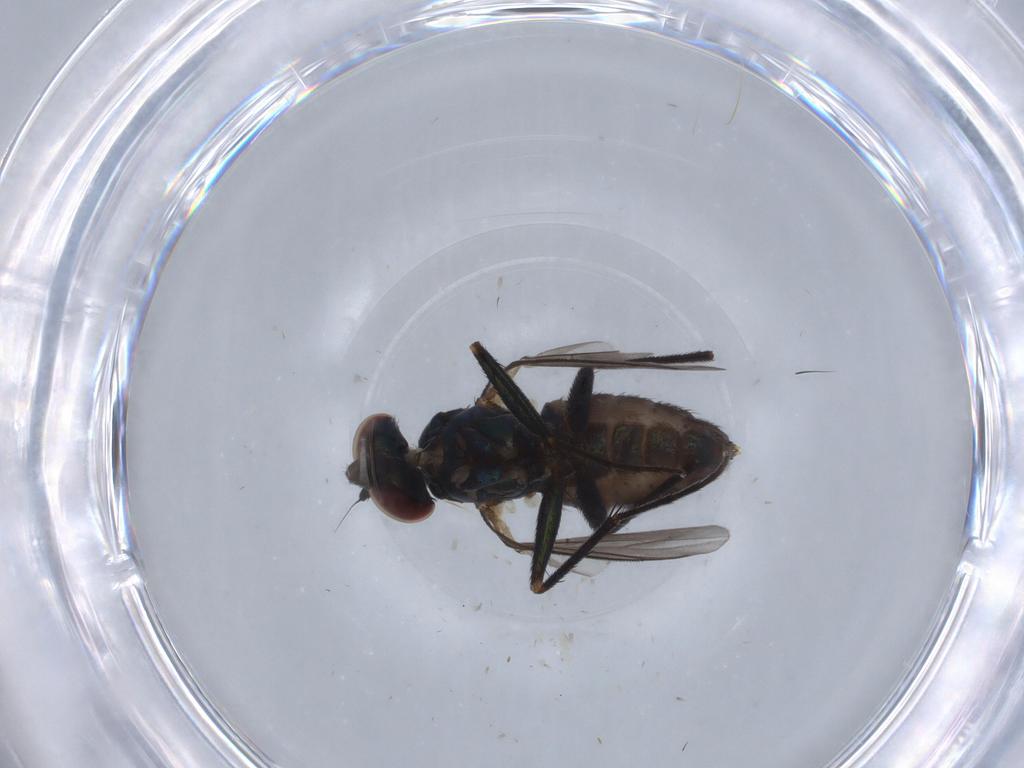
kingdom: Animalia
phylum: Arthropoda
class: Insecta
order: Diptera
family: Dolichopodidae
